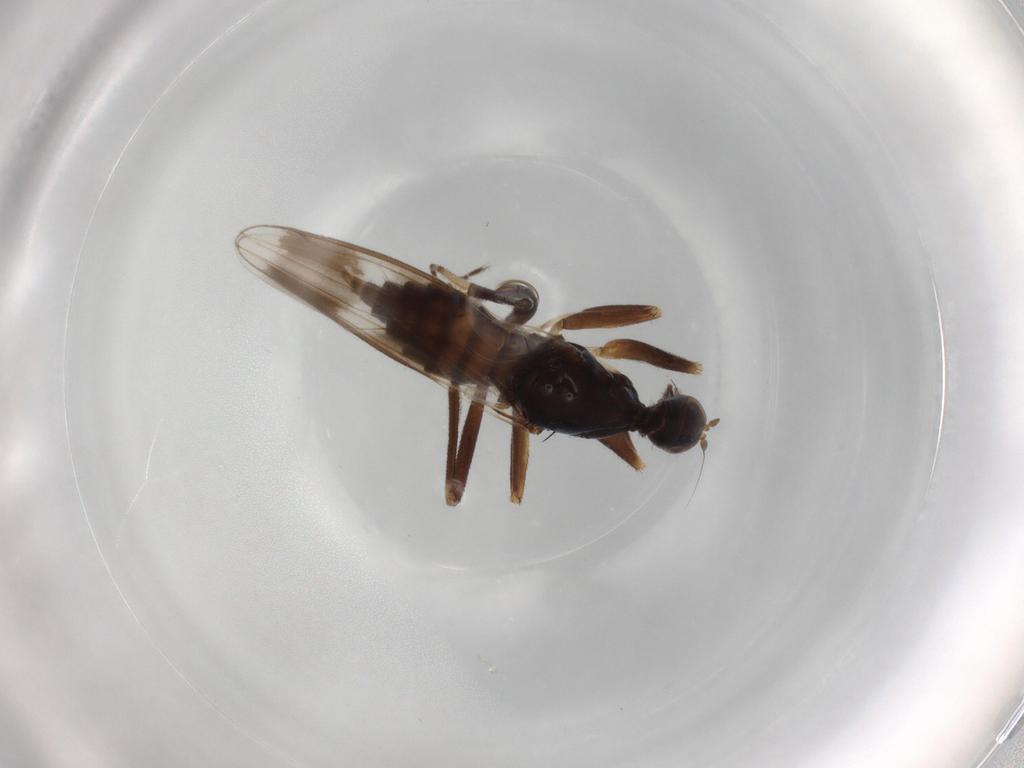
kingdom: Animalia
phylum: Arthropoda
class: Insecta
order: Diptera
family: Hybotidae
